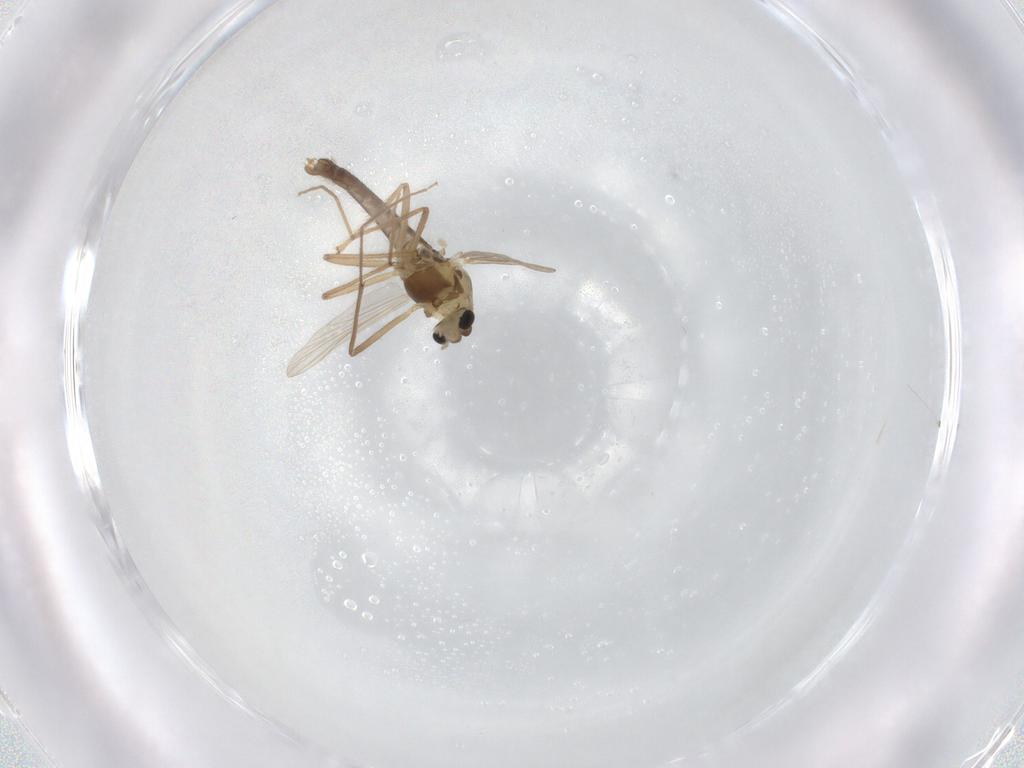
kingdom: Animalia
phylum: Arthropoda
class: Insecta
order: Diptera
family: Chironomidae
